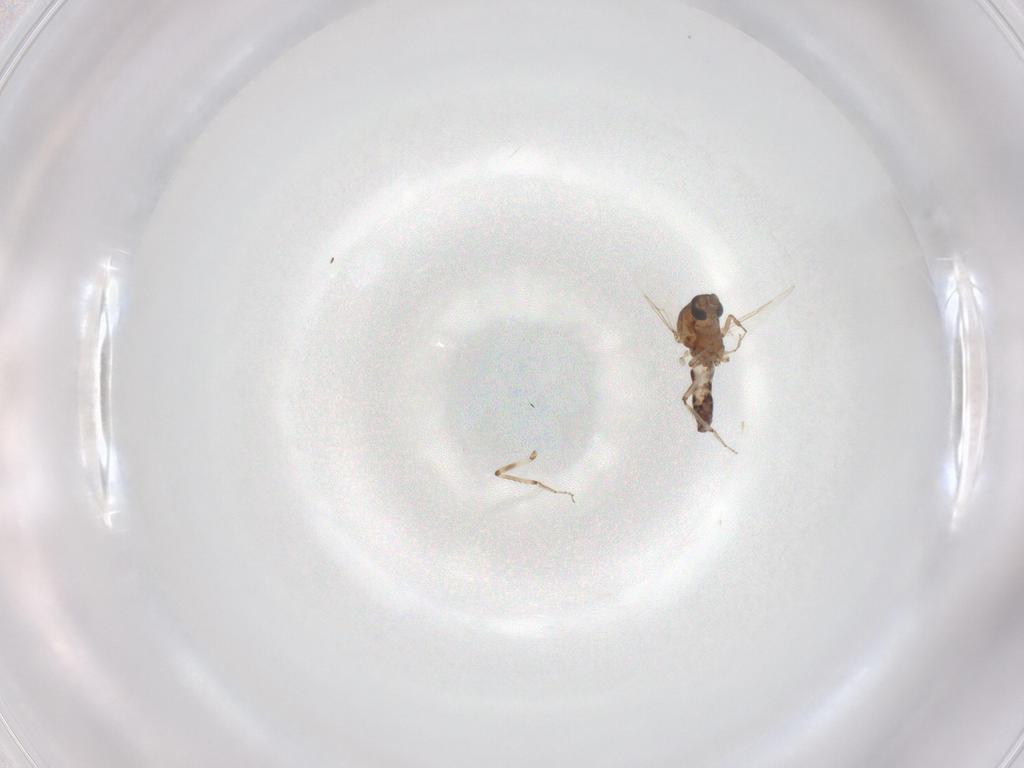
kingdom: Animalia
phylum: Arthropoda
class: Insecta
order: Diptera
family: Ceratopogonidae
